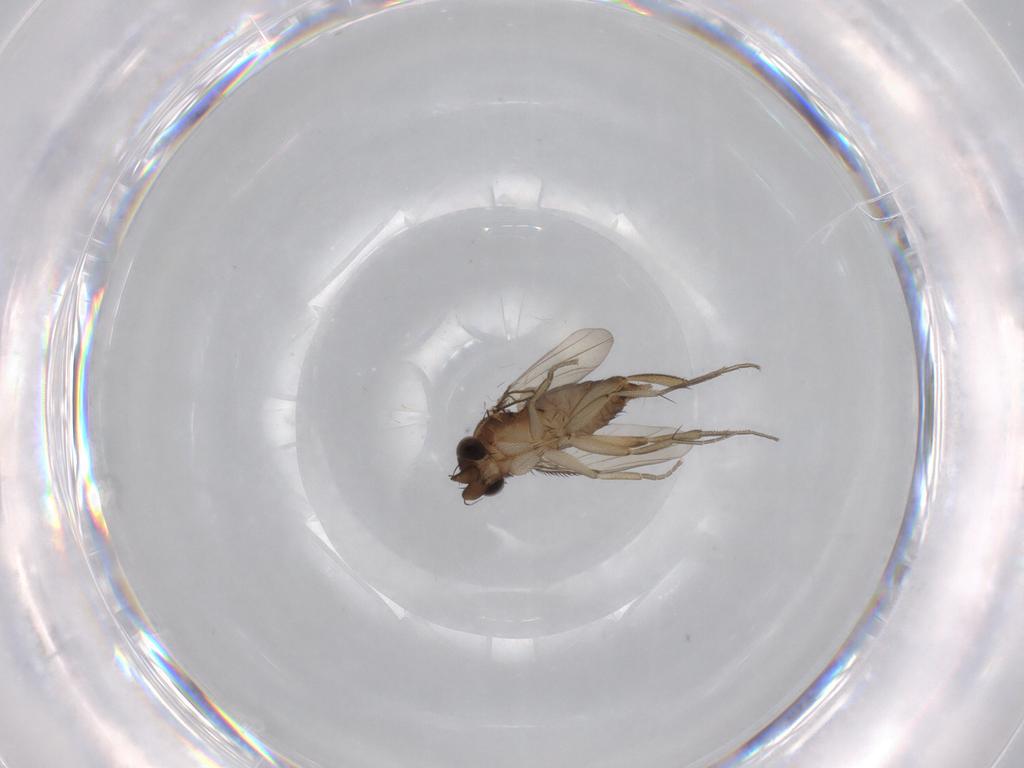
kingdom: Animalia
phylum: Arthropoda
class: Insecta
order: Diptera
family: Phoridae
